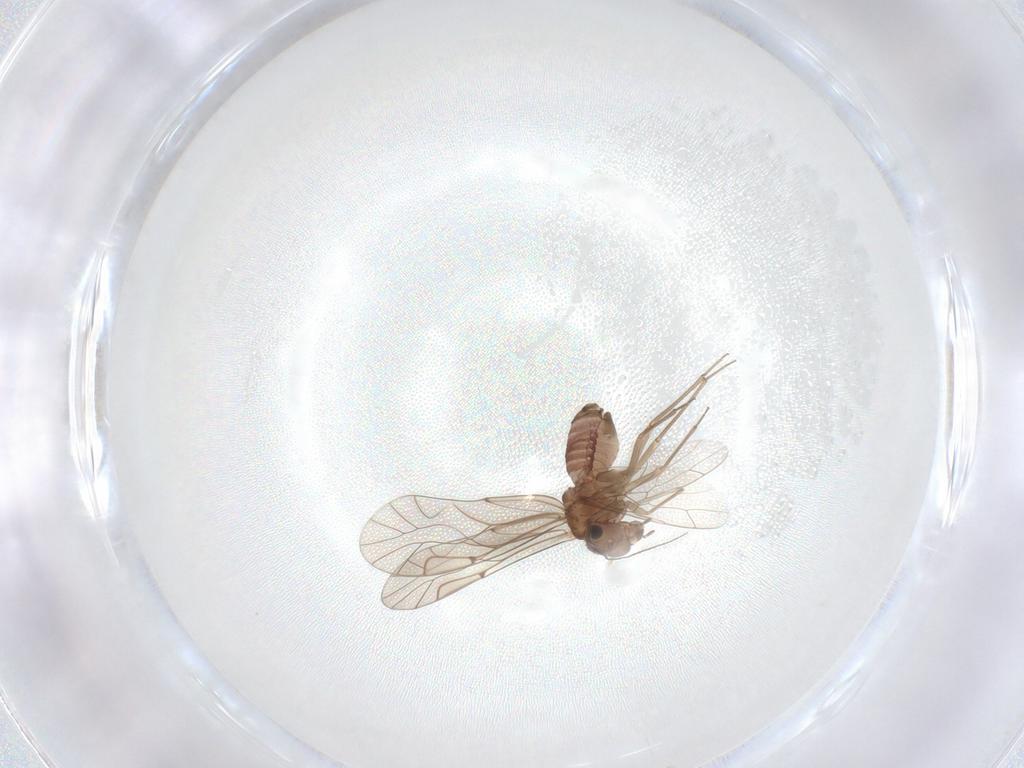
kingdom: Animalia
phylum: Arthropoda
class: Insecta
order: Psocodea
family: Lachesillidae
